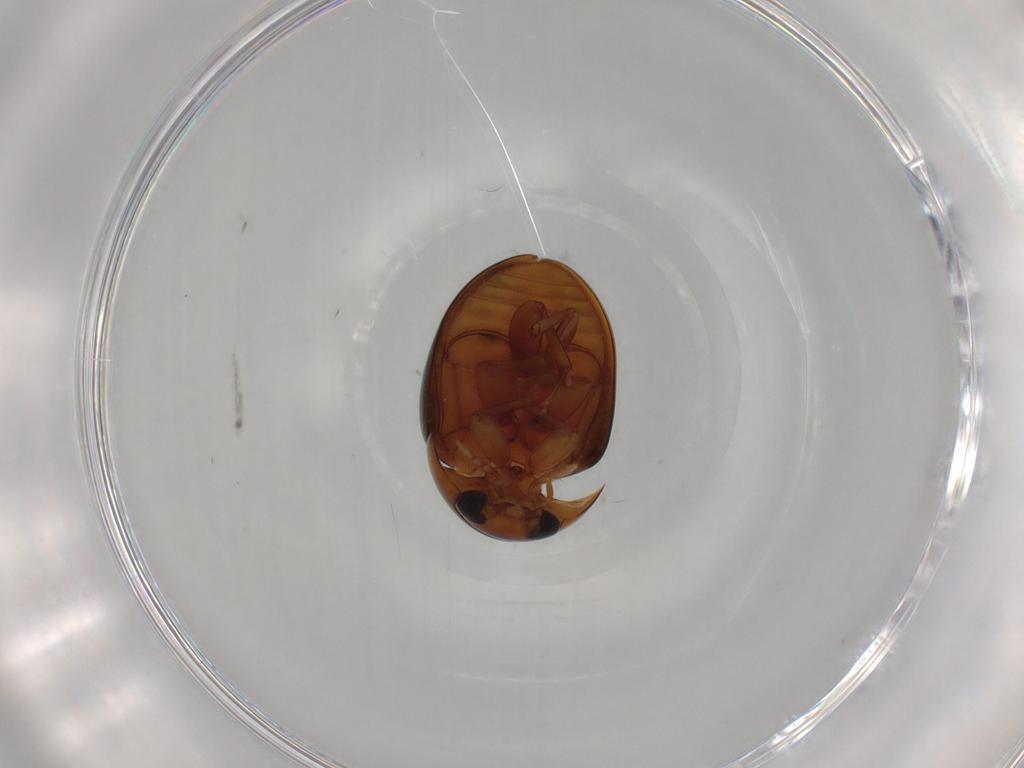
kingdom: Animalia
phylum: Arthropoda
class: Insecta
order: Coleoptera
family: Phalacridae
